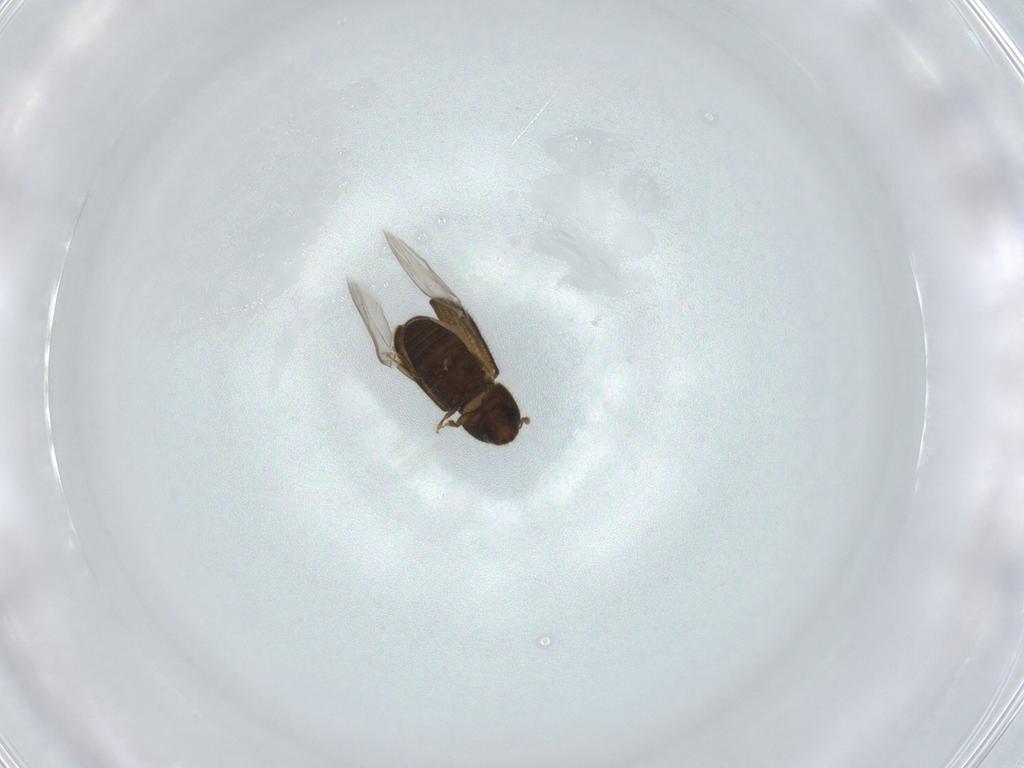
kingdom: Animalia
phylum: Arthropoda
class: Insecta
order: Coleoptera
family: Curculionidae
